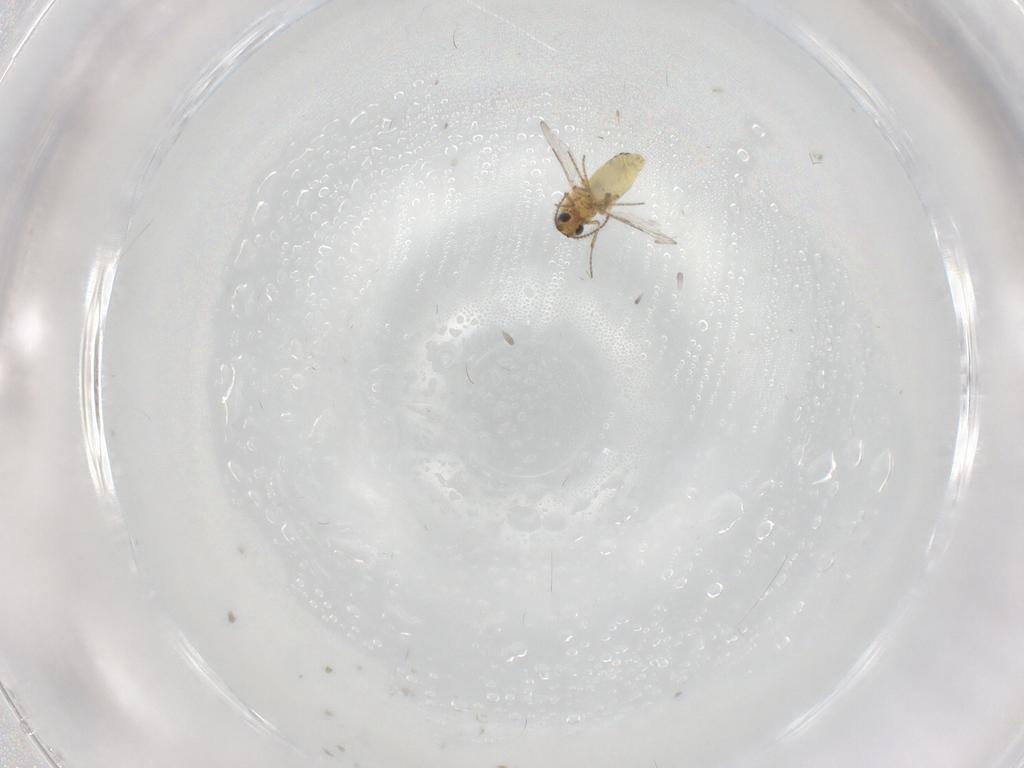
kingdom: Animalia
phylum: Arthropoda
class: Insecta
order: Diptera
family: Ceratopogonidae
